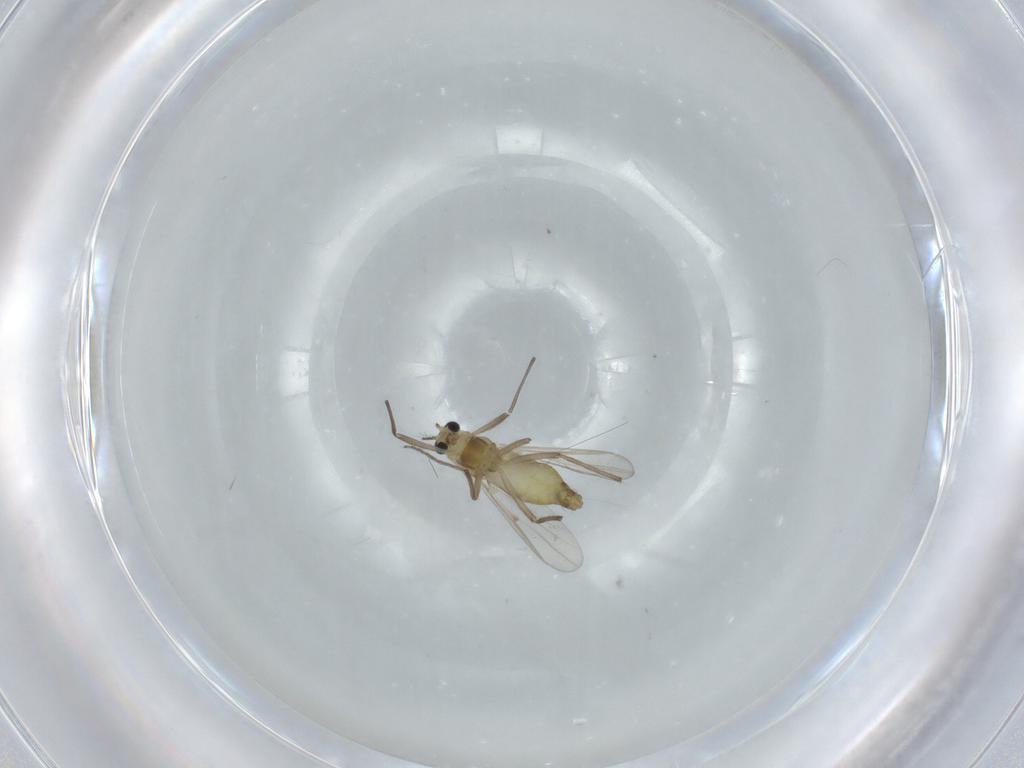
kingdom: Animalia
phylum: Arthropoda
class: Insecta
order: Diptera
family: Chironomidae
